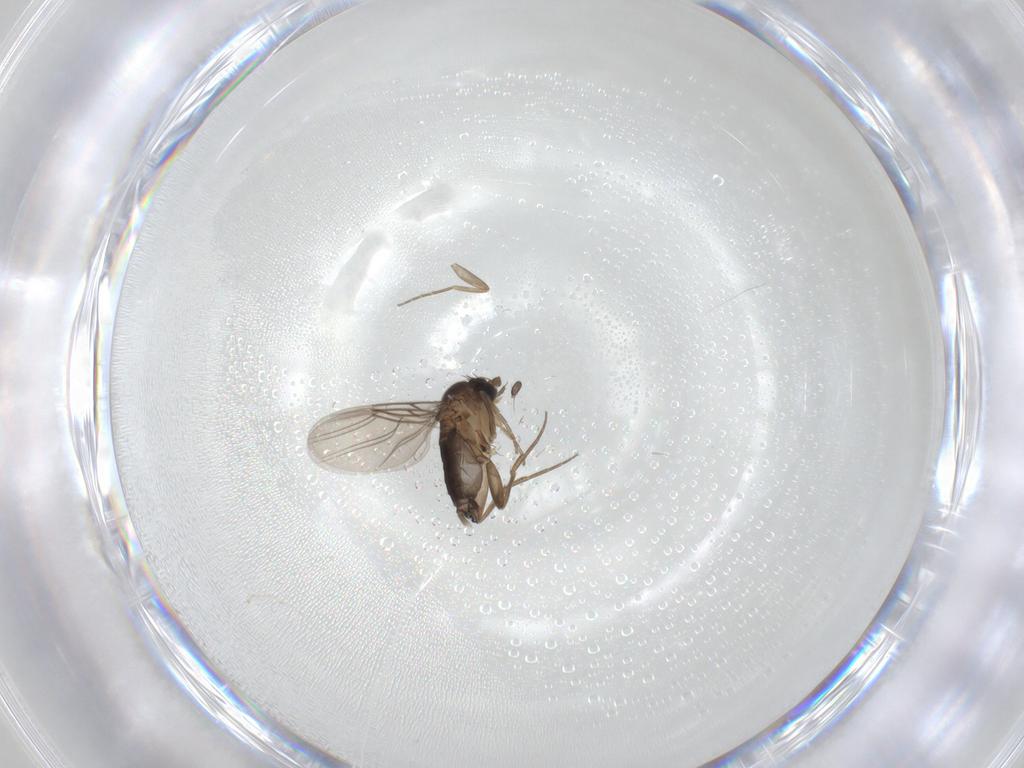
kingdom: Animalia
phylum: Arthropoda
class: Insecta
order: Diptera
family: Phoridae
